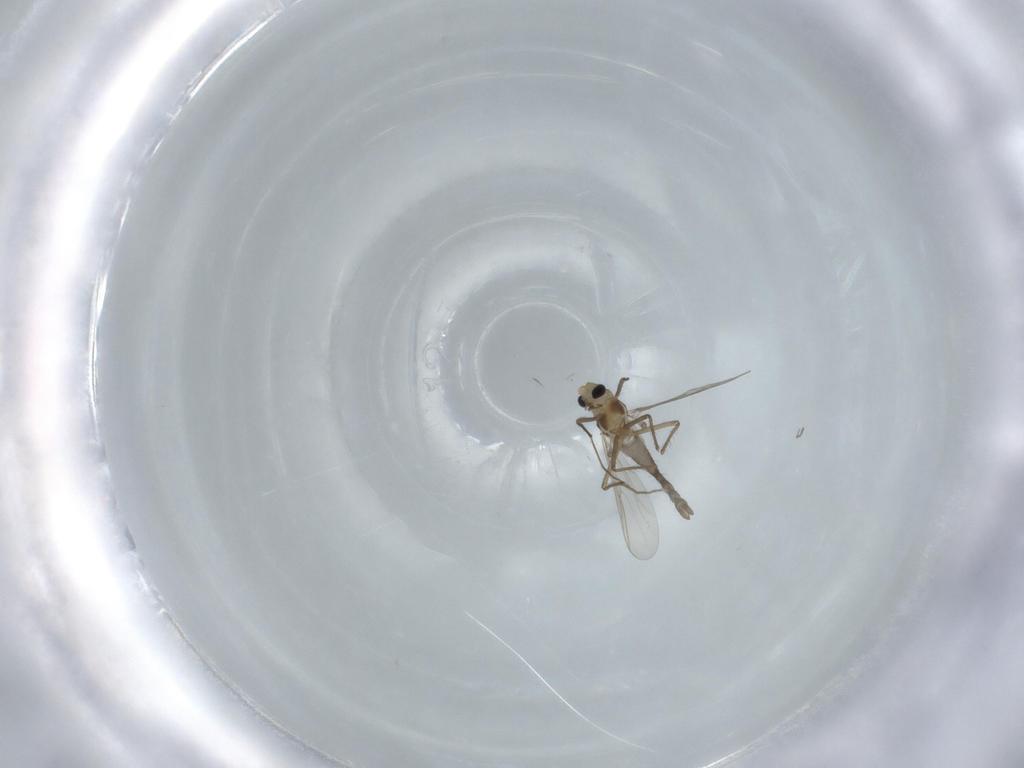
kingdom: Animalia
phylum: Arthropoda
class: Insecta
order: Diptera
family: Chironomidae
